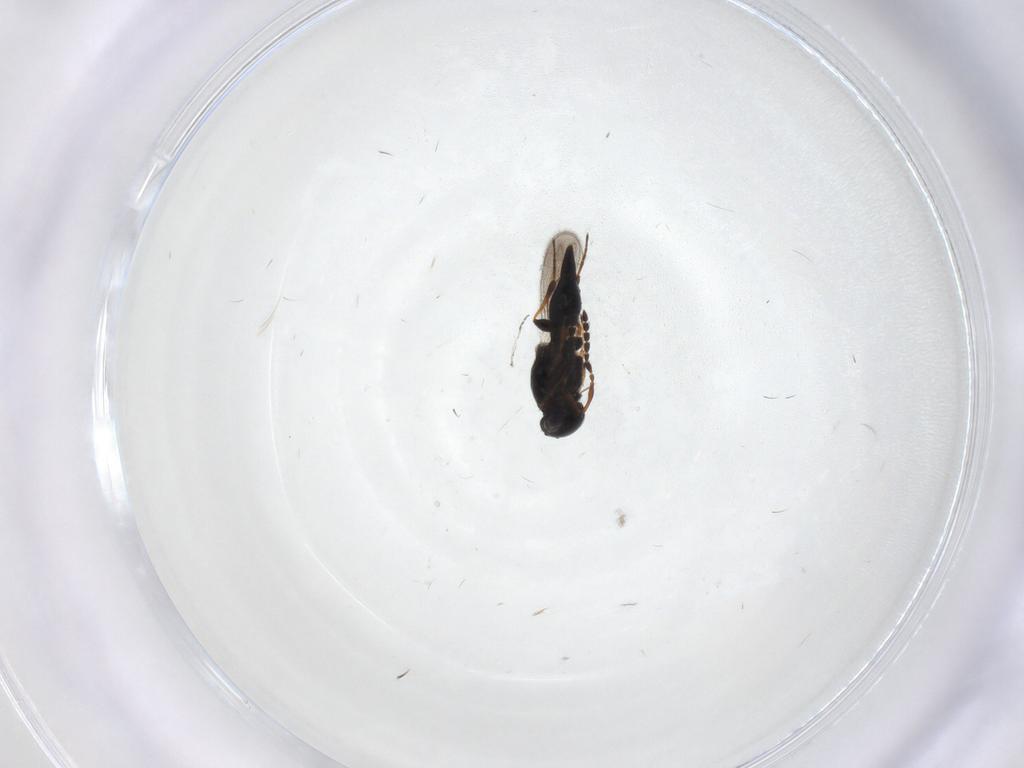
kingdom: Animalia
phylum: Arthropoda
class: Insecta
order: Hymenoptera
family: Platygastridae
